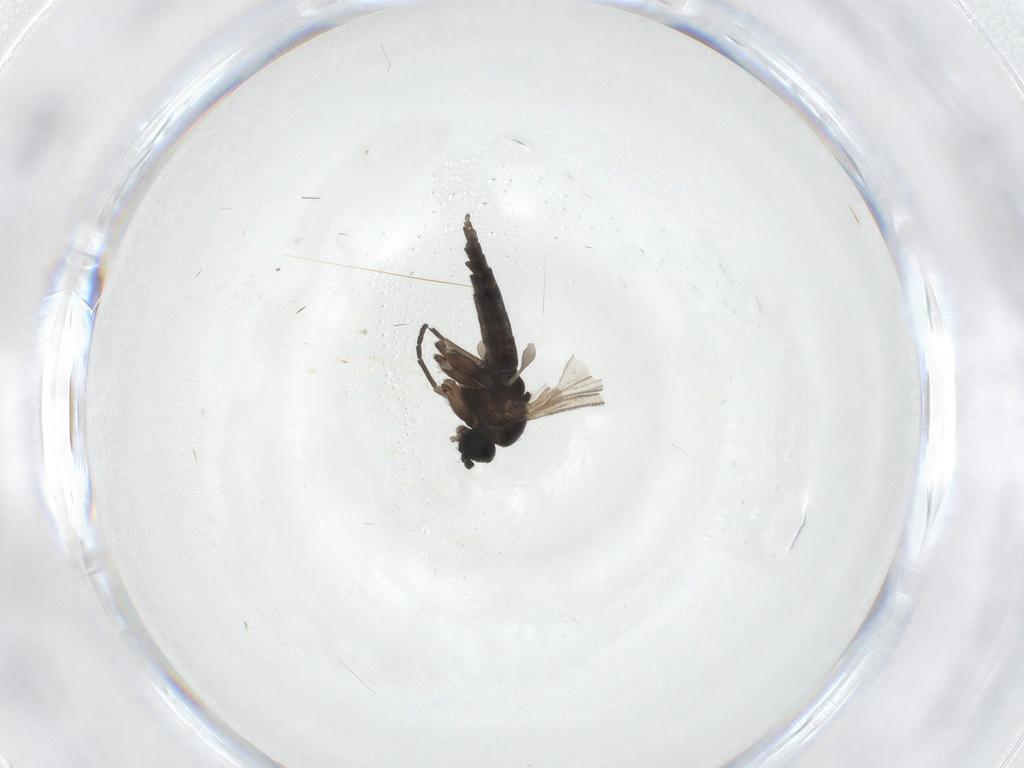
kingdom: Animalia
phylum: Arthropoda
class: Insecta
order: Diptera
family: Sciaridae
